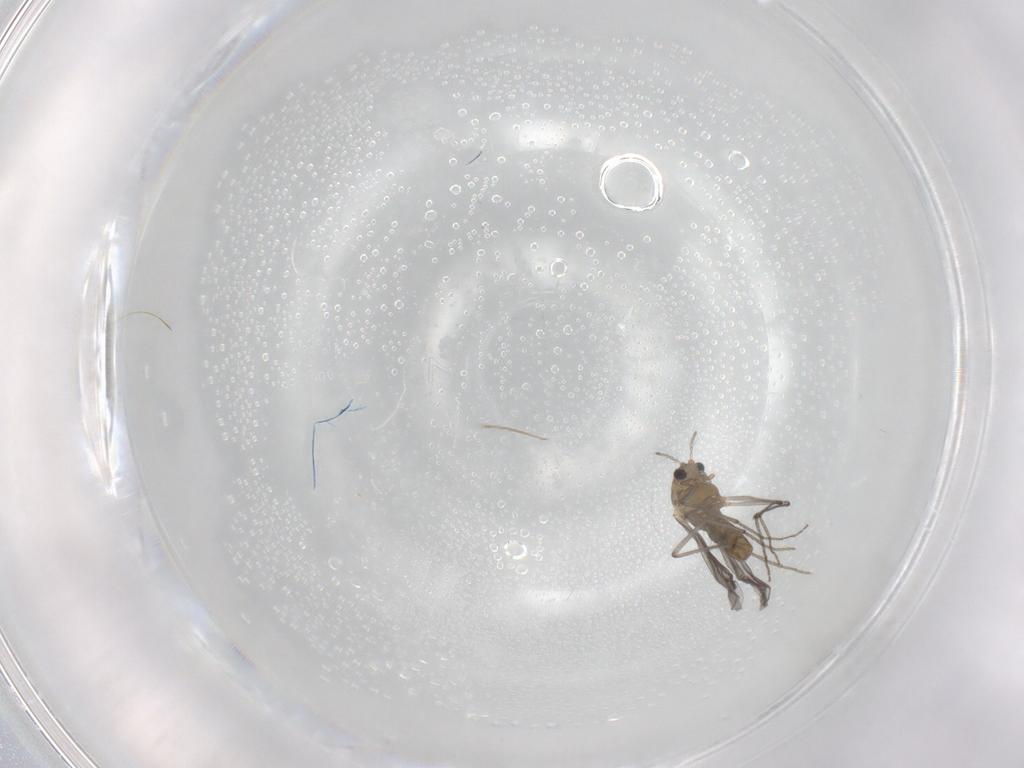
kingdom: Animalia
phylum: Arthropoda
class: Insecta
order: Diptera
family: Chironomidae
